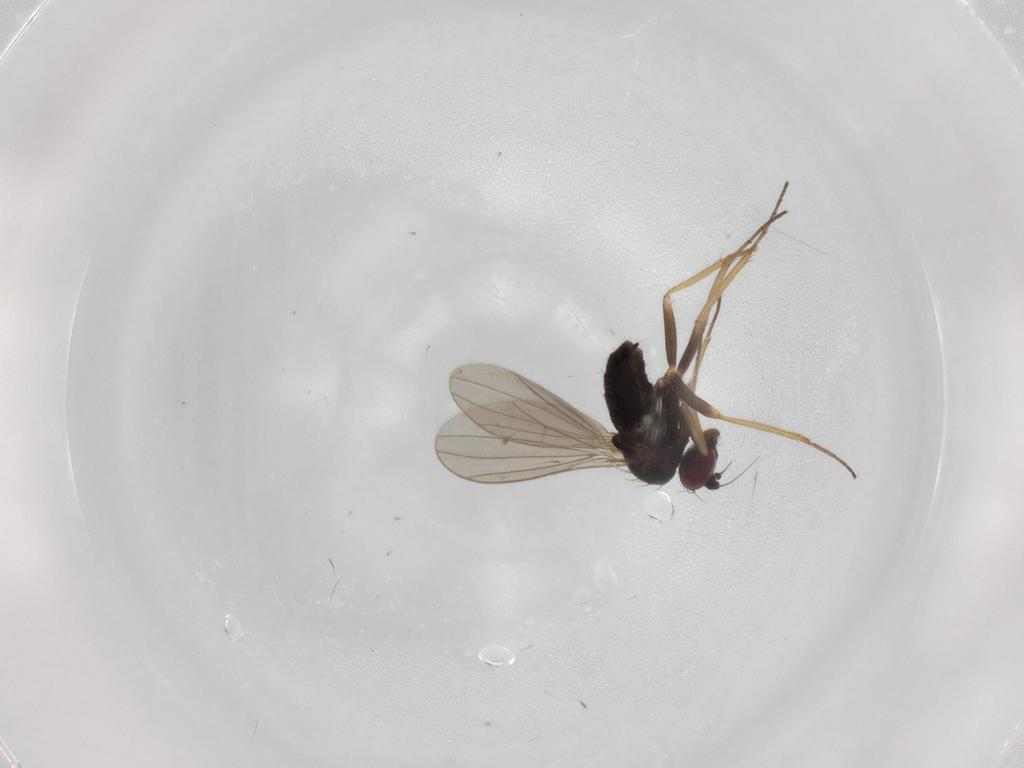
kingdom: Animalia
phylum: Arthropoda
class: Insecta
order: Diptera
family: Dolichopodidae
